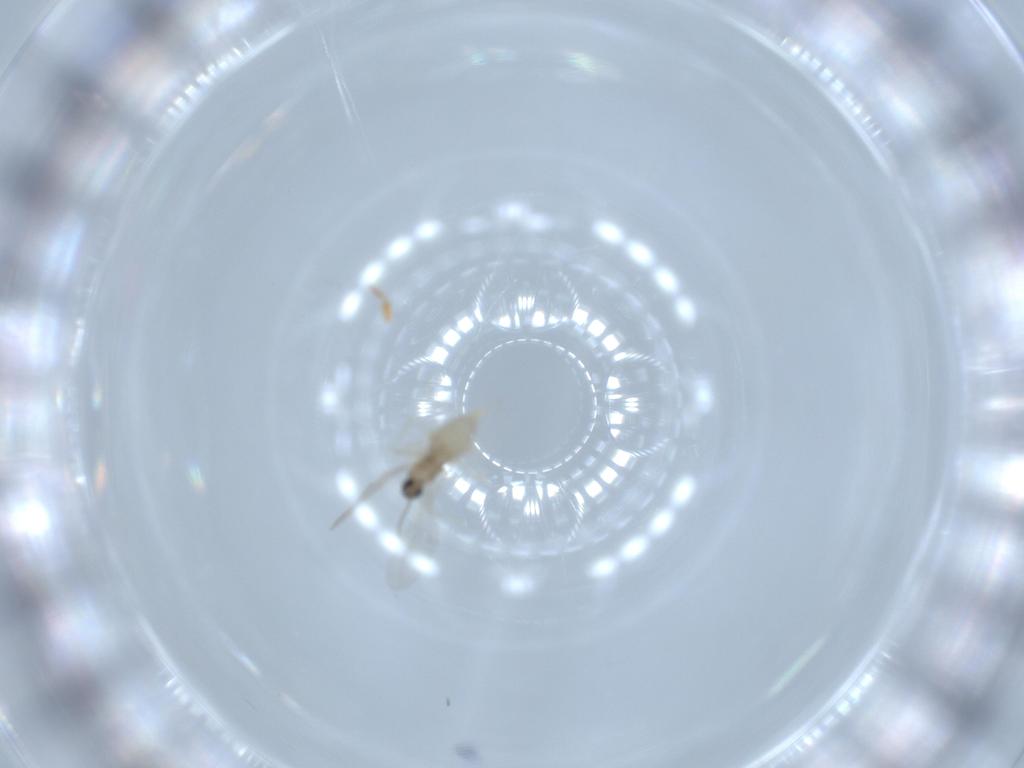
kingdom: Animalia
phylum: Arthropoda
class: Insecta
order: Diptera
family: Cecidomyiidae
